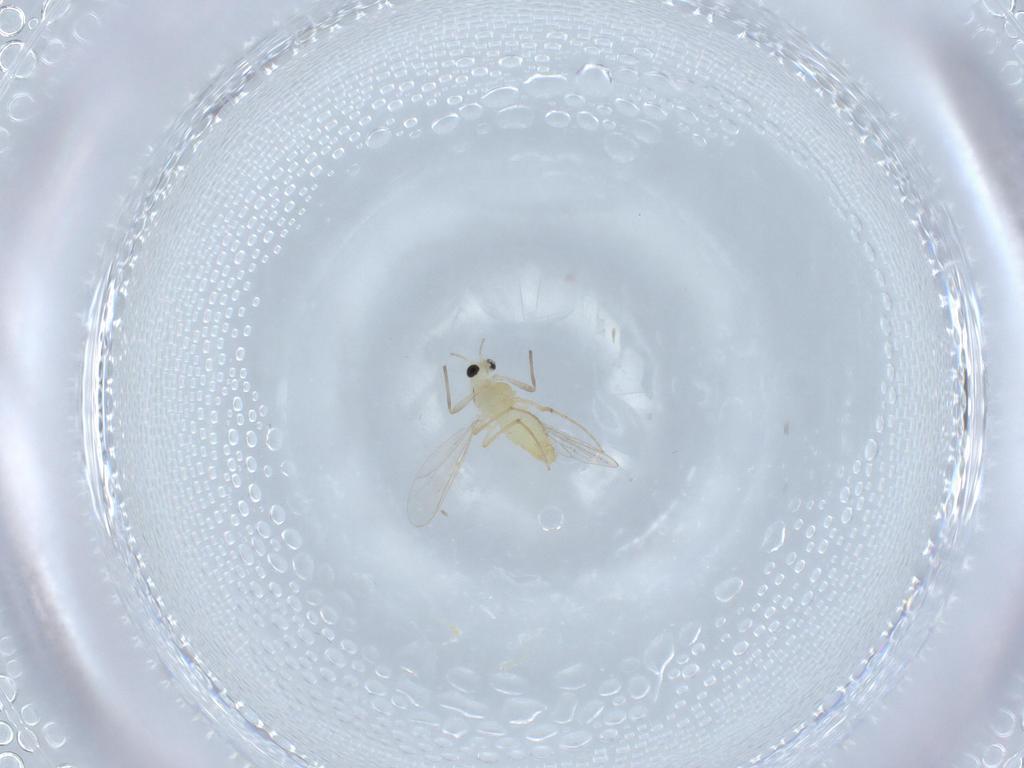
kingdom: Animalia
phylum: Arthropoda
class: Insecta
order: Diptera
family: Chironomidae
